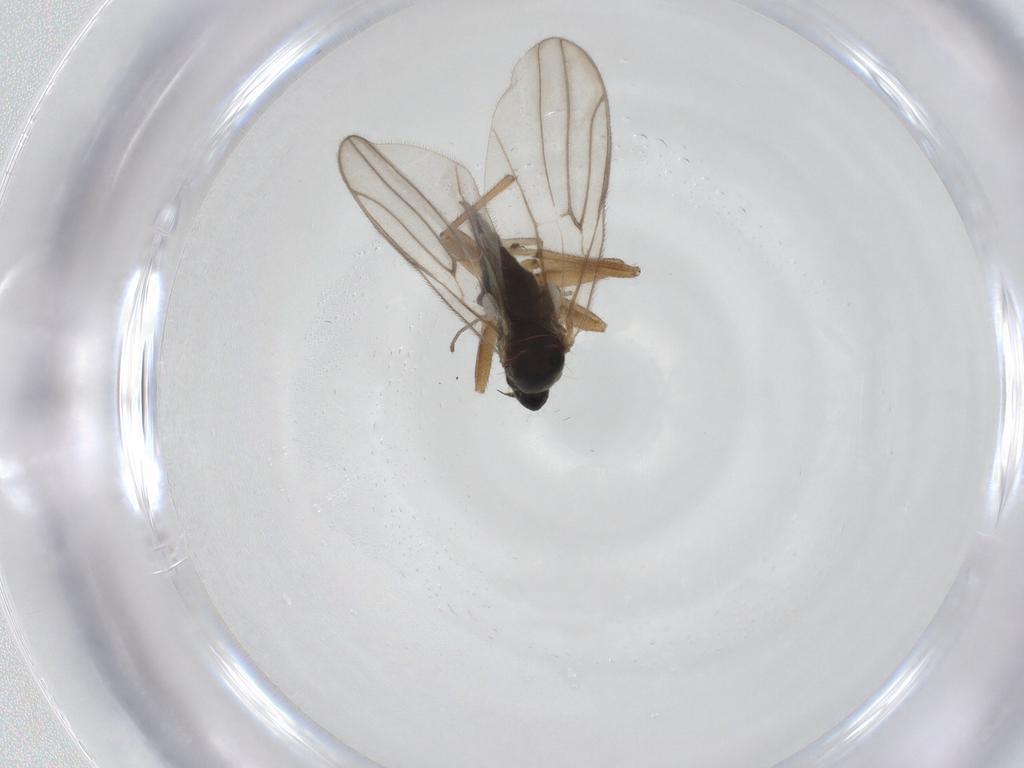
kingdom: Animalia
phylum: Arthropoda
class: Insecta
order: Diptera
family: Hybotidae
